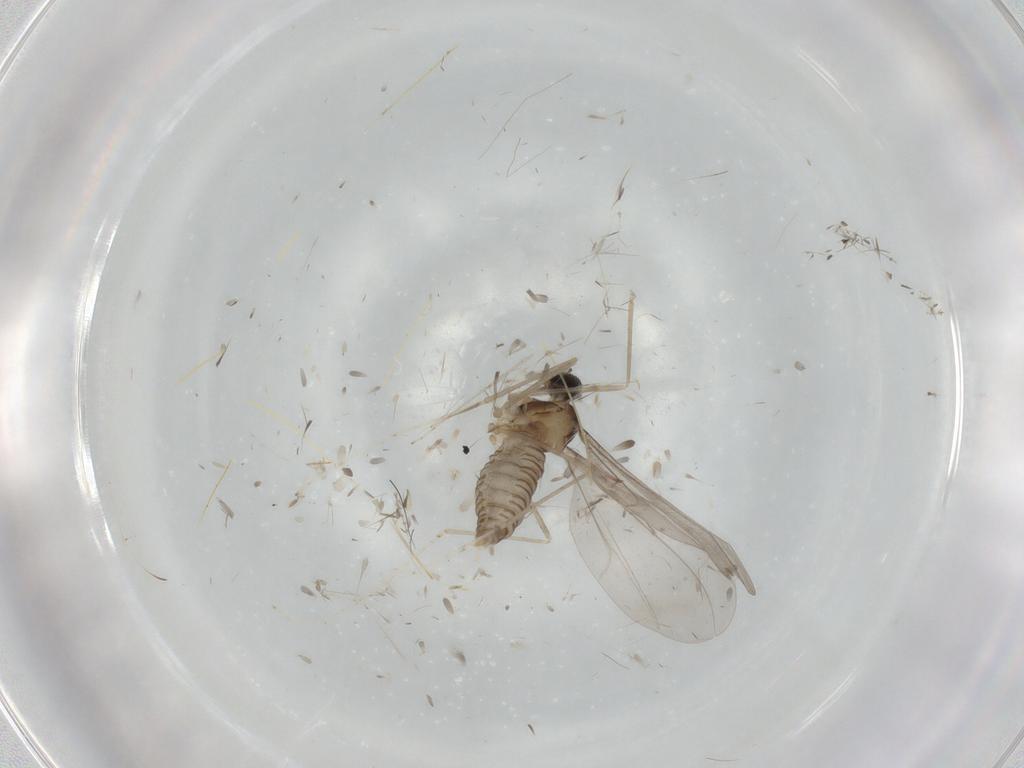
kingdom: Animalia
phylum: Arthropoda
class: Insecta
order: Diptera
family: Cecidomyiidae
